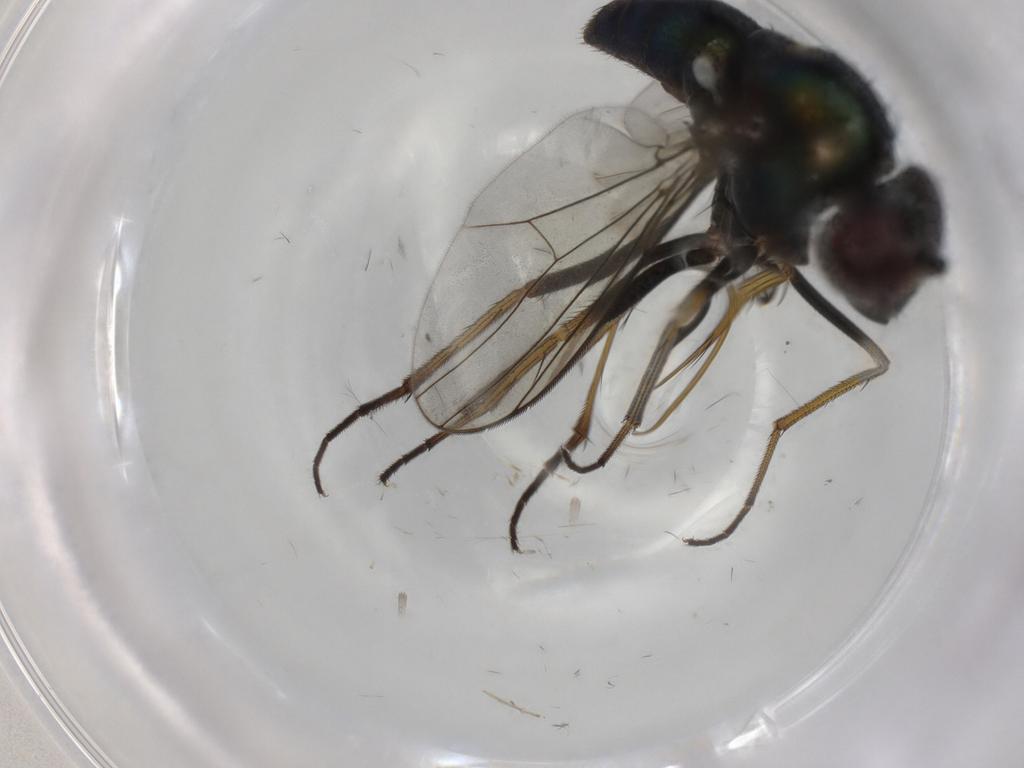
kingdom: Animalia
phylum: Arthropoda
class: Insecta
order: Diptera
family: Dolichopodidae
